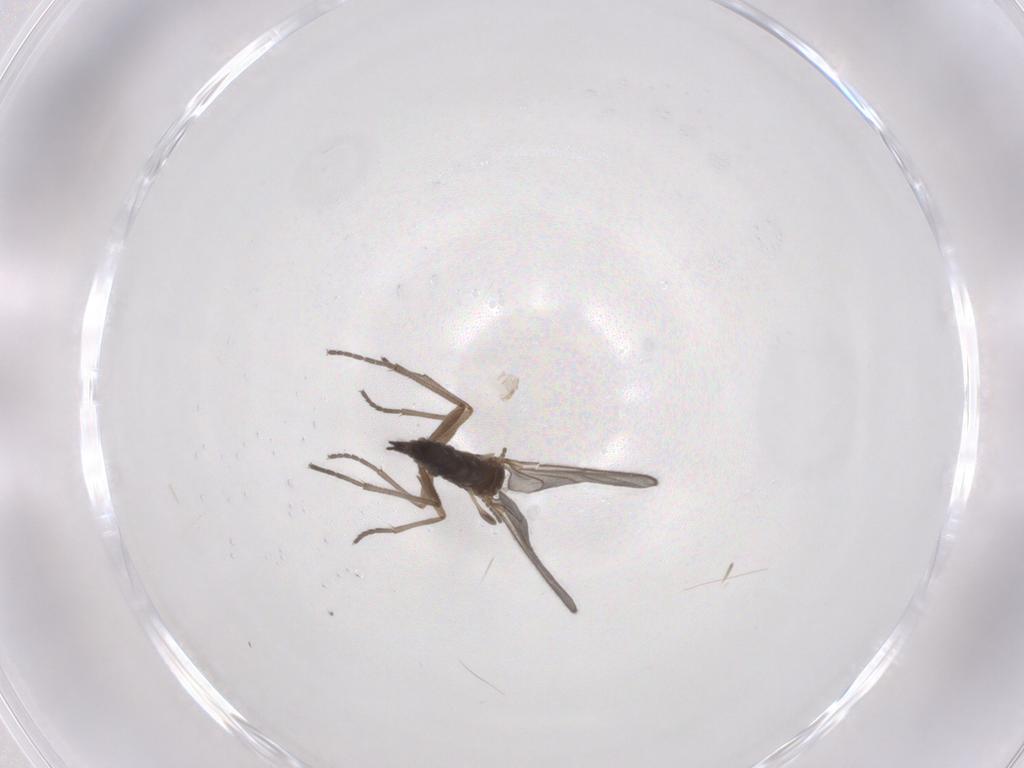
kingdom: Animalia
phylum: Arthropoda
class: Insecta
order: Diptera
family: Sciaridae
